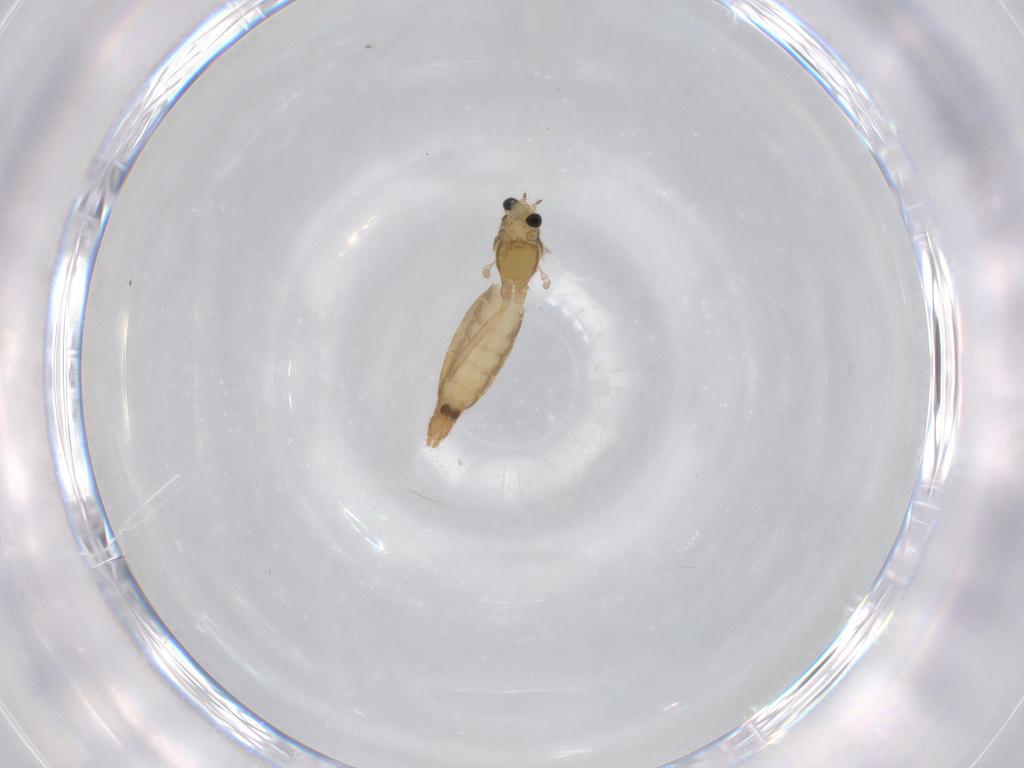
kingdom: Animalia
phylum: Arthropoda
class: Insecta
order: Diptera
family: Chironomidae
